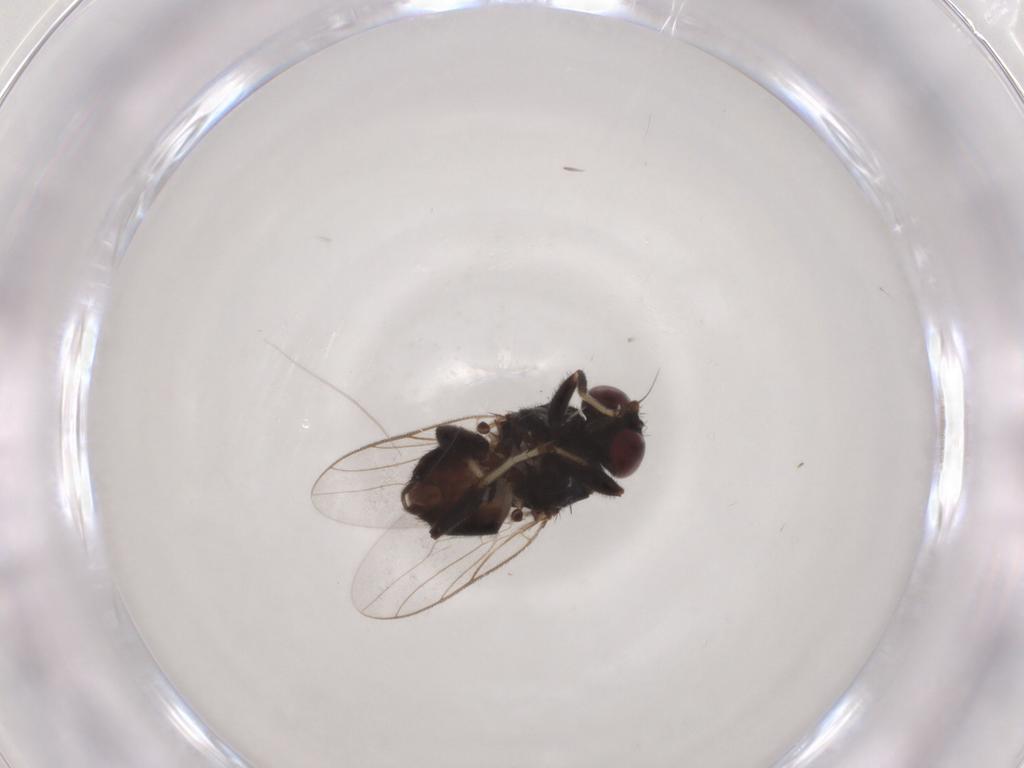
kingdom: Animalia
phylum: Arthropoda
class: Insecta
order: Diptera
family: Chloropidae
